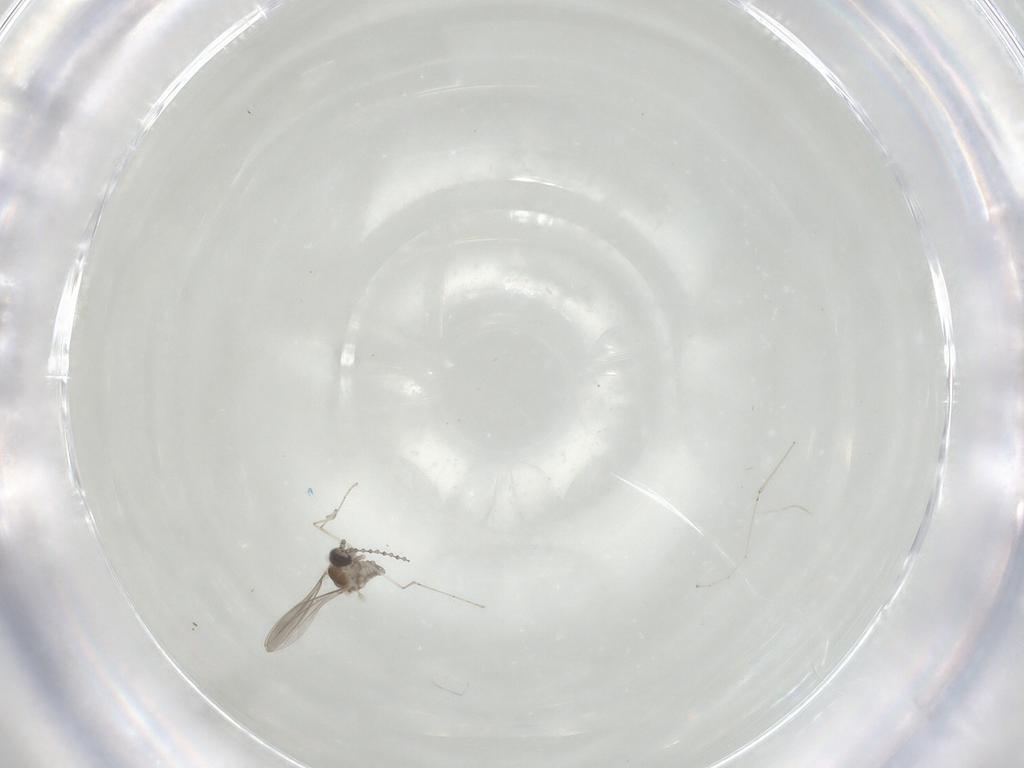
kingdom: Animalia
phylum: Arthropoda
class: Insecta
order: Diptera
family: Cecidomyiidae
